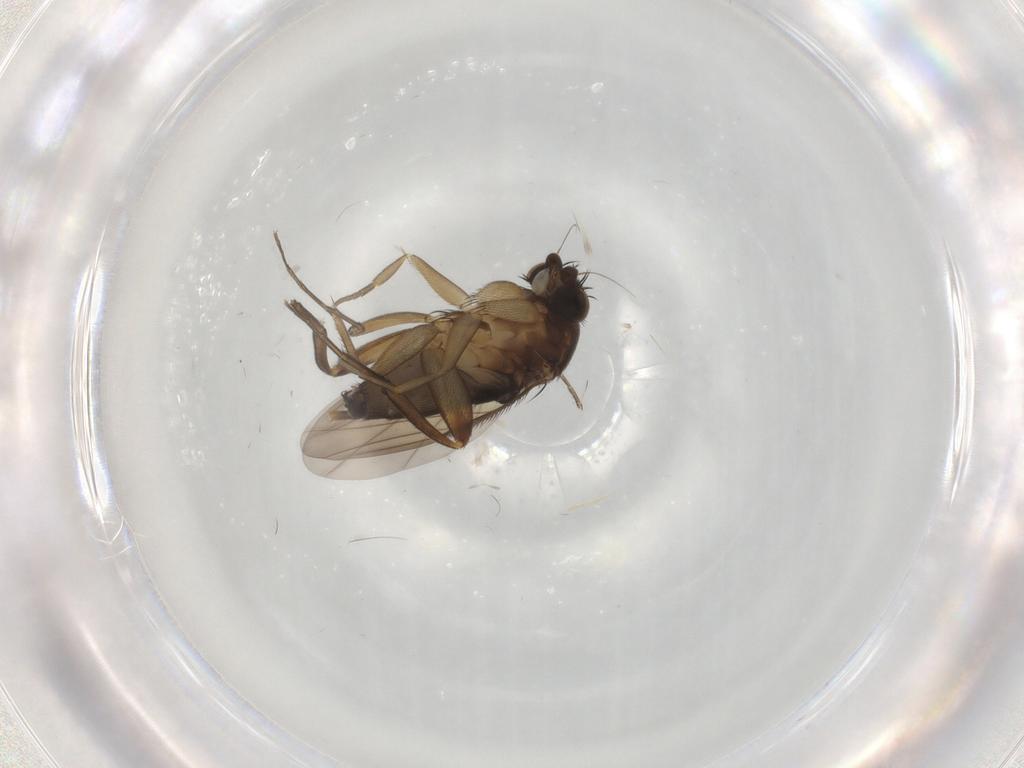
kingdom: Animalia
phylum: Arthropoda
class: Insecta
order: Diptera
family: Phoridae
